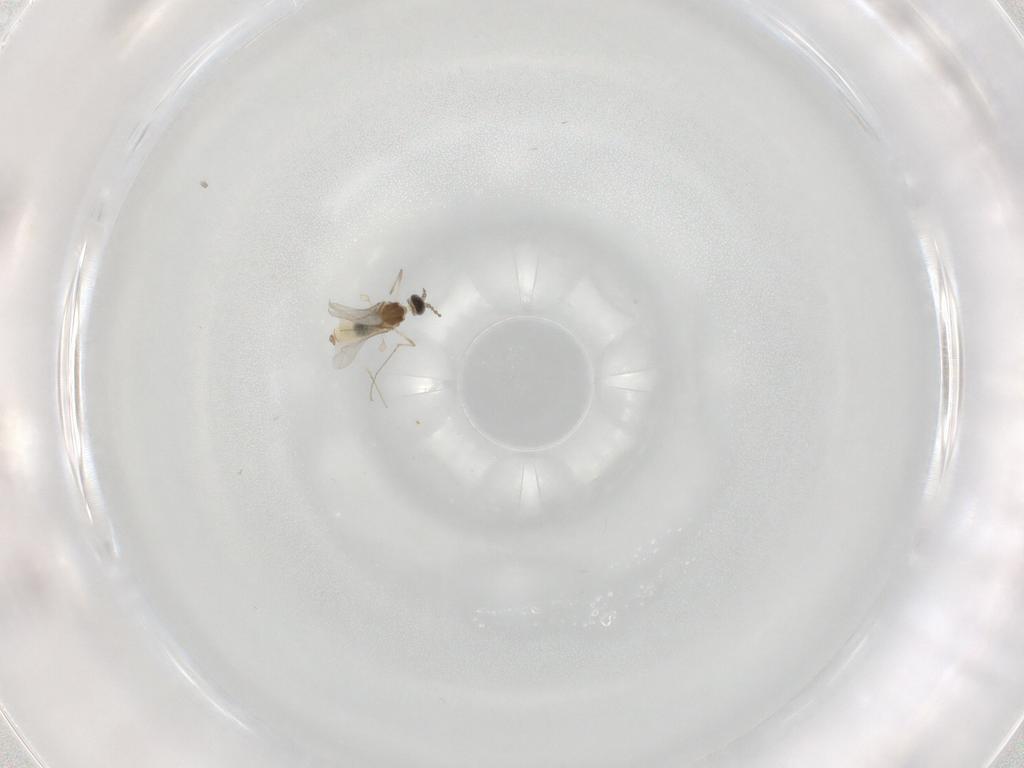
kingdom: Animalia
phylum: Arthropoda
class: Insecta
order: Diptera
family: Cecidomyiidae
